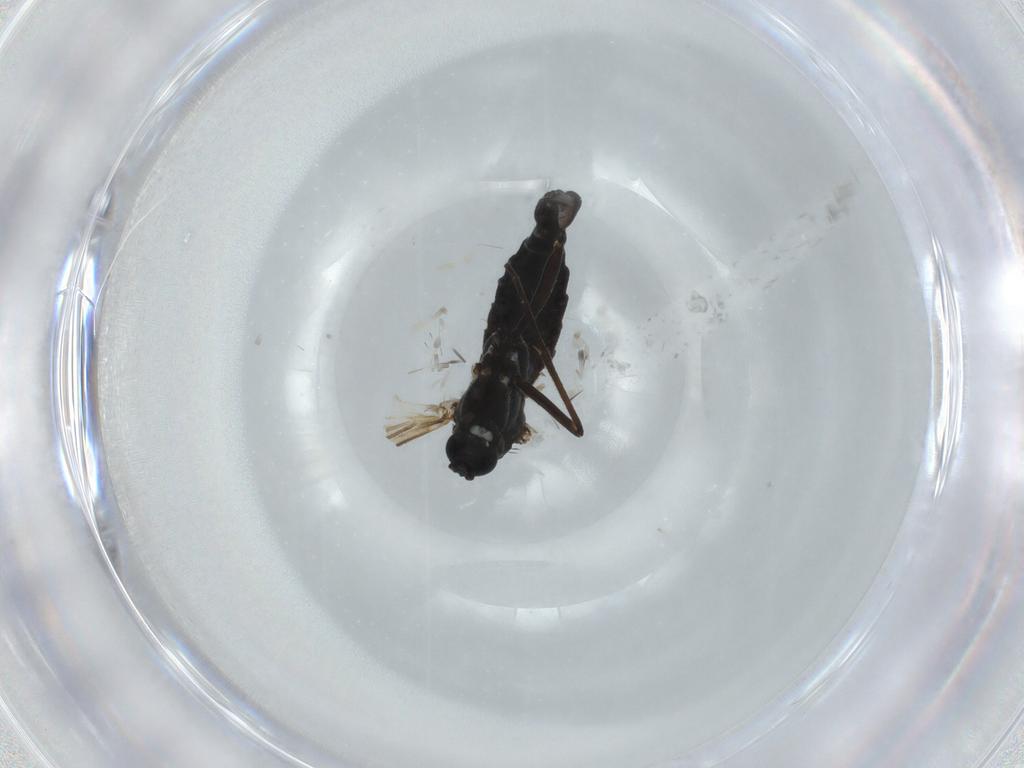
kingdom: Animalia
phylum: Arthropoda
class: Insecta
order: Diptera
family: Sciaridae
